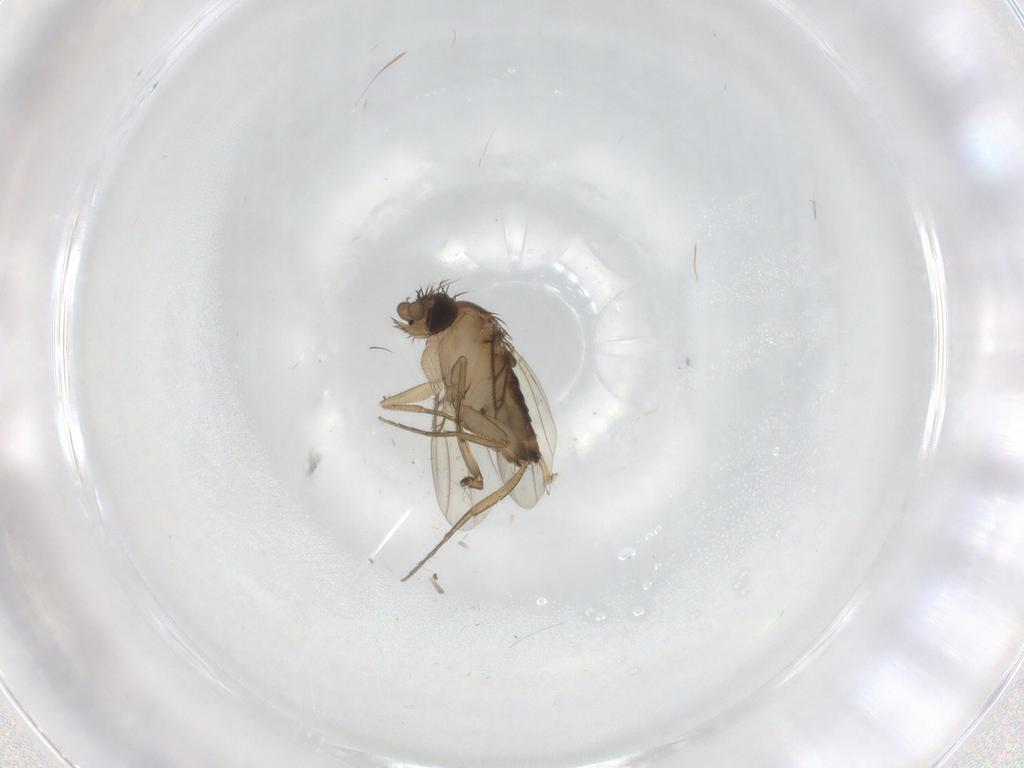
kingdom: Animalia
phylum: Arthropoda
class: Insecta
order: Diptera
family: Phoridae
